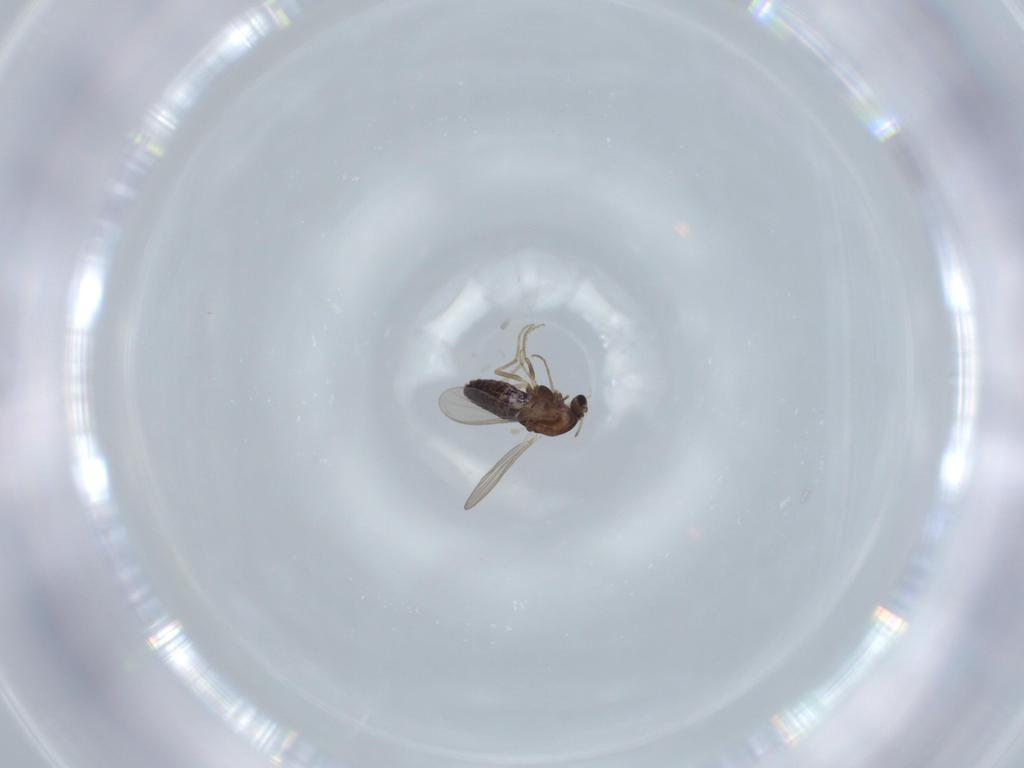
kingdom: Animalia
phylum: Arthropoda
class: Insecta
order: Diptera
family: Chironomidae
